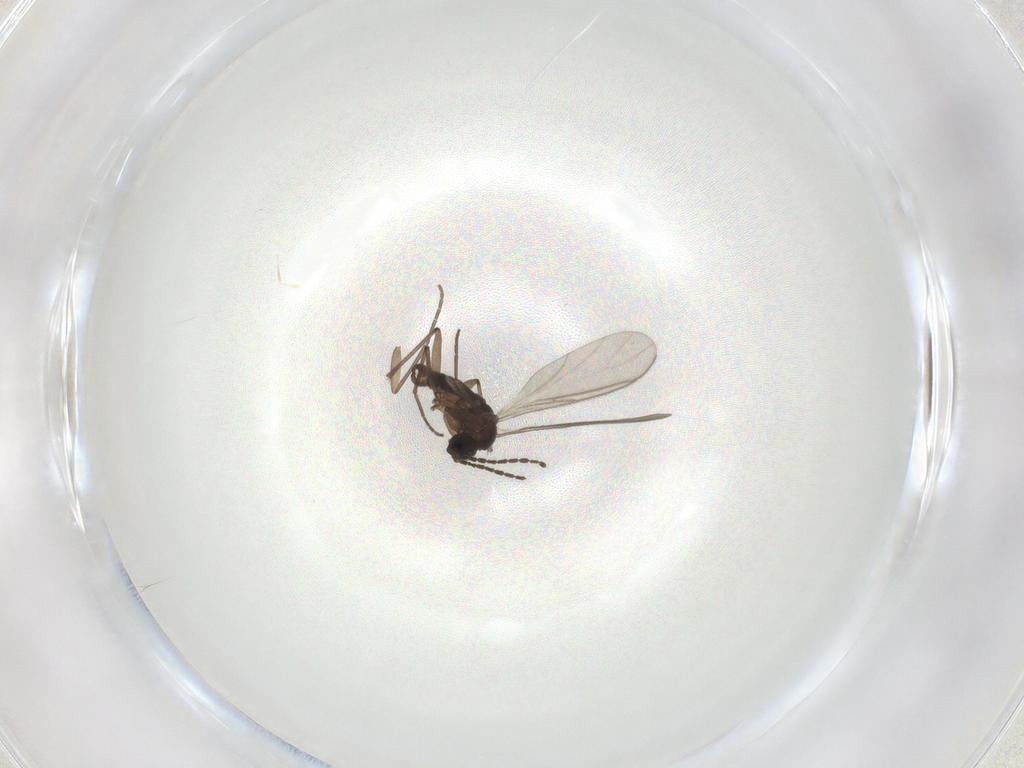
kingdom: Animalia
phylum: Arthropoda
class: Insecta
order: Diptera
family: Sciaridae
